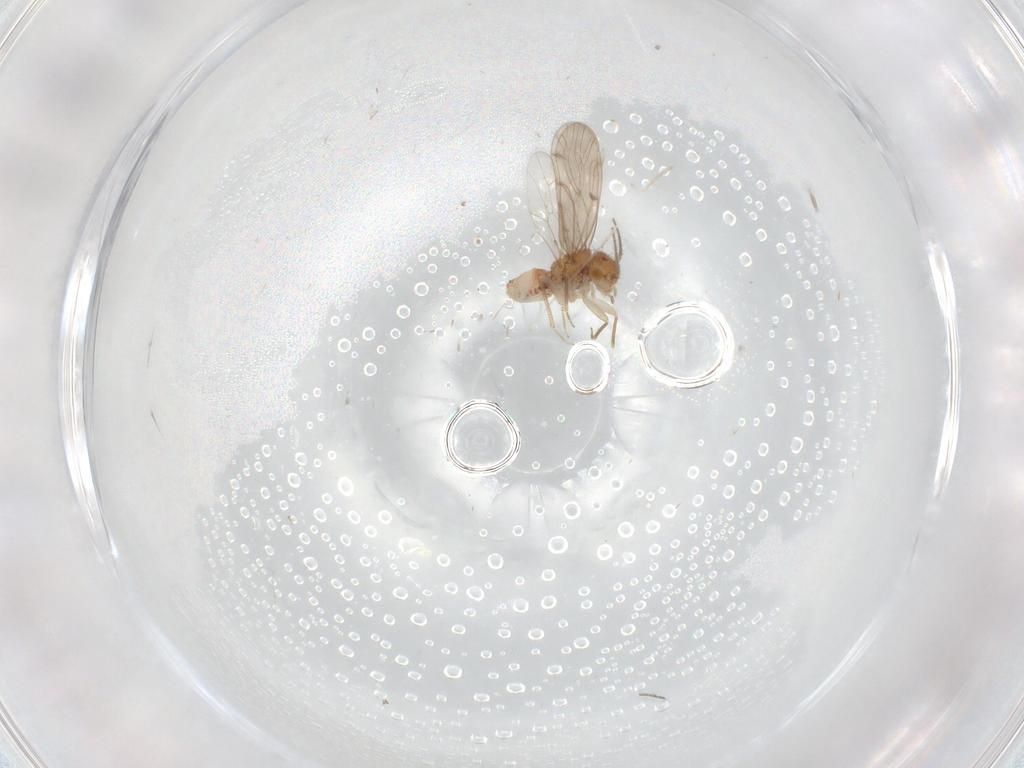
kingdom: Animalia
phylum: Arthropoda
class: Insecta
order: Psocodea
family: Ectopsocidae
